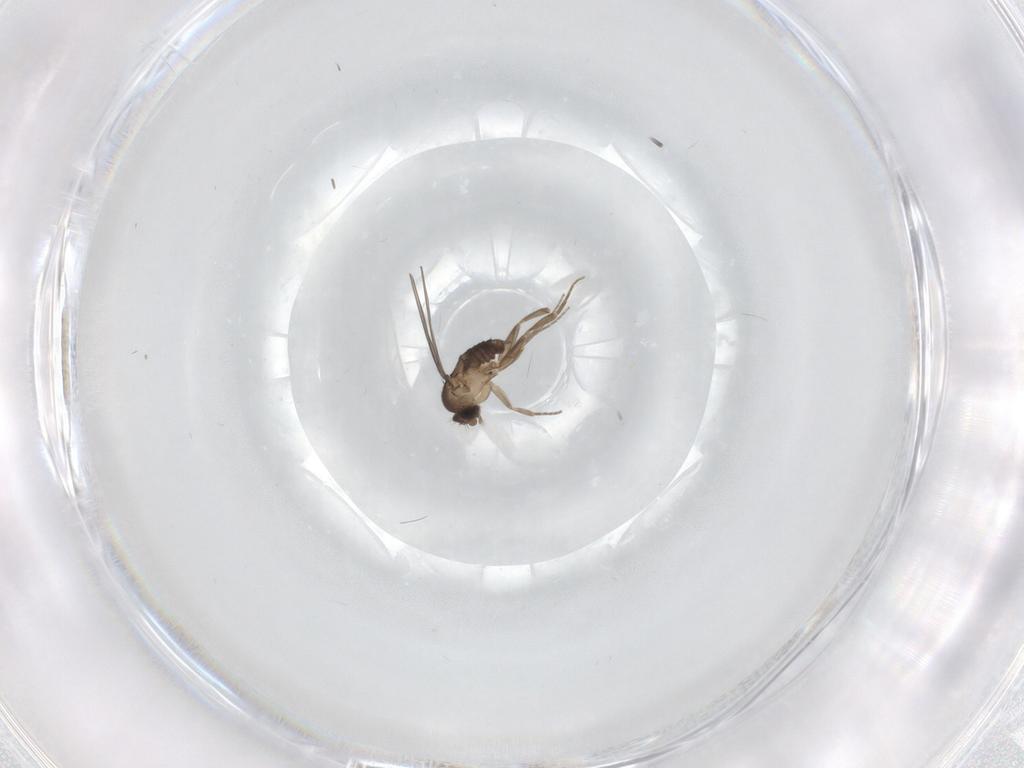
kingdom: Animalia
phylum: Arthropoda
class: Insecta
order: Diptera
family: Phoridae
